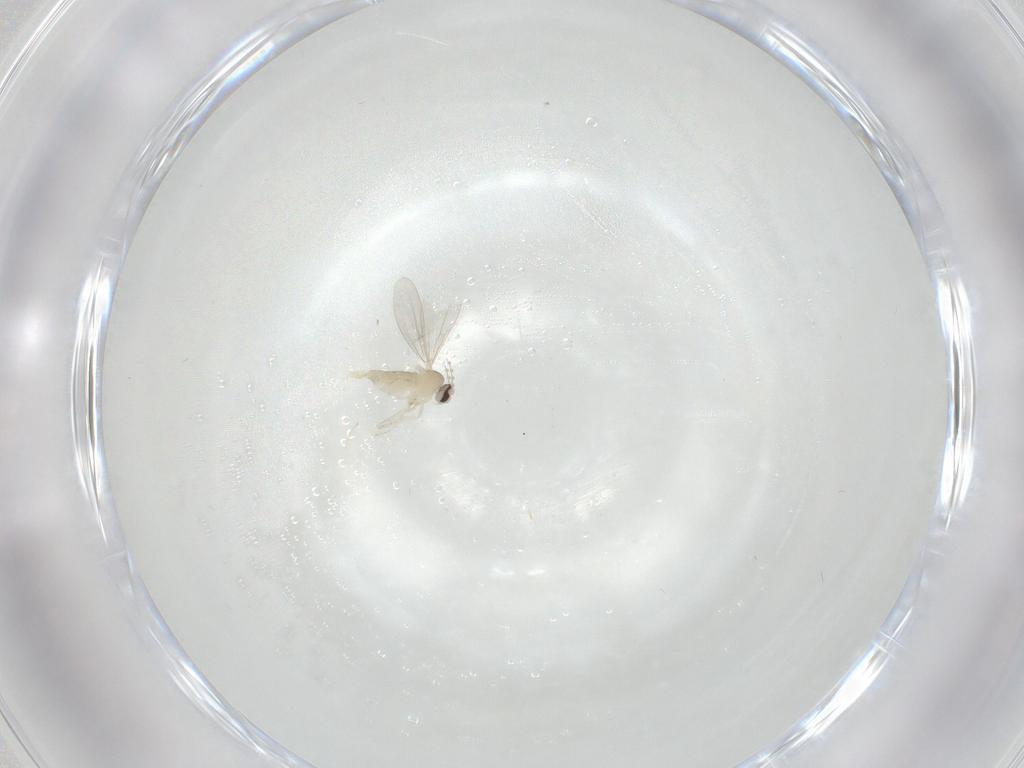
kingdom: Animalia
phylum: Arthropoda
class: Insecta
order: Diptera
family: Cecidomyiidae
